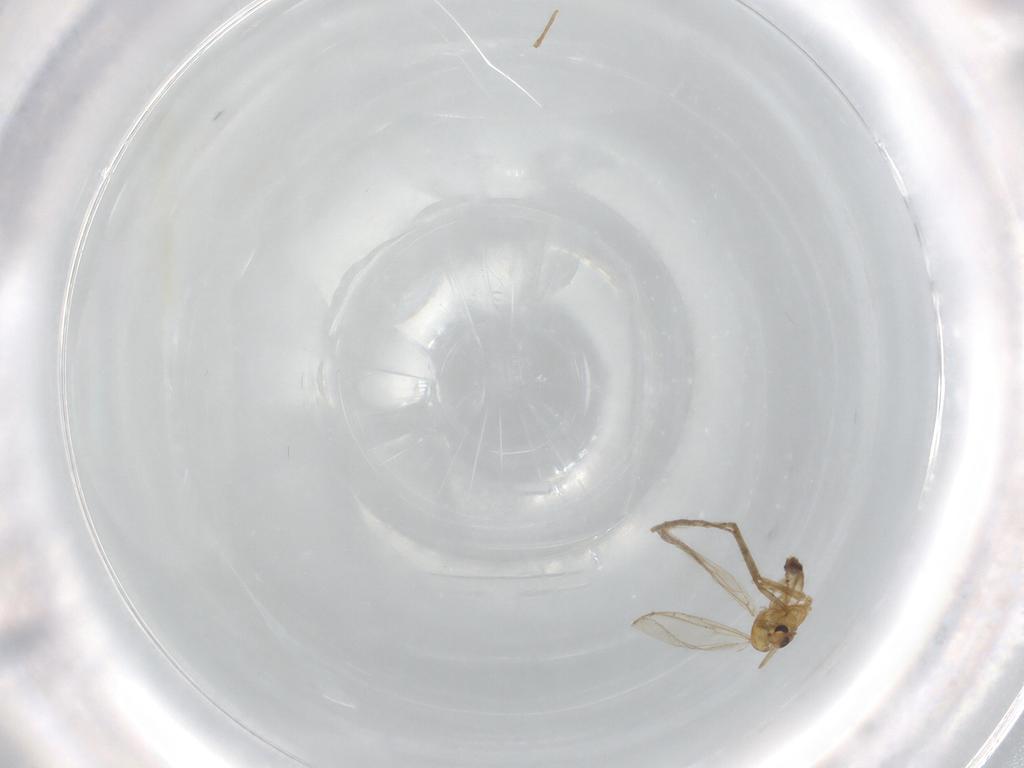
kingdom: Animalia
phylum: Arthropoda
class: Insecta
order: Diptera
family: Chironomidae
